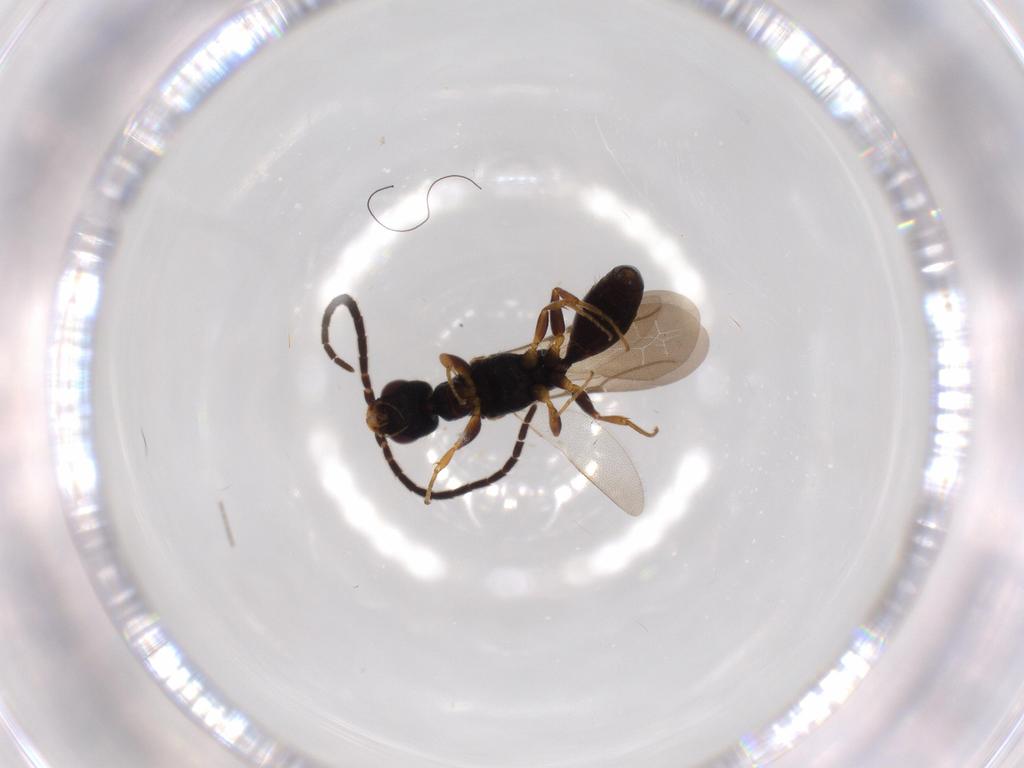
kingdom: Animalia
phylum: Arthropoda
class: Insecta
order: Hymenoptera
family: Bethylidae
